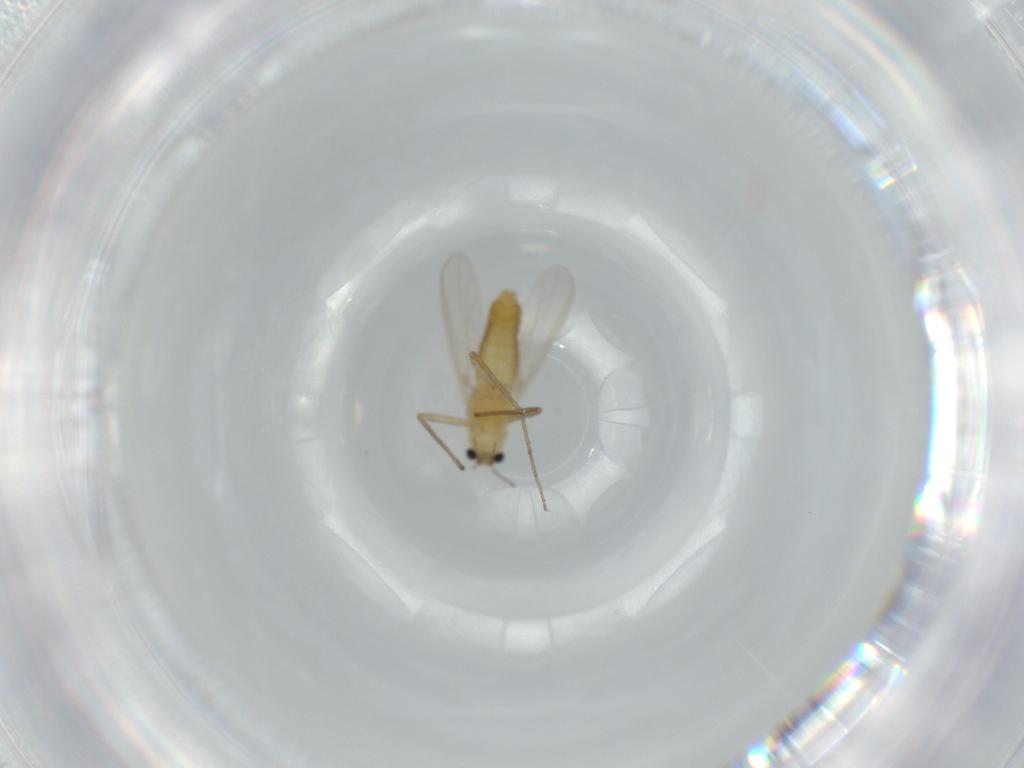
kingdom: Animalia
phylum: Arthropoda
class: Insecta
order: Diptera
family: Chironomidae
